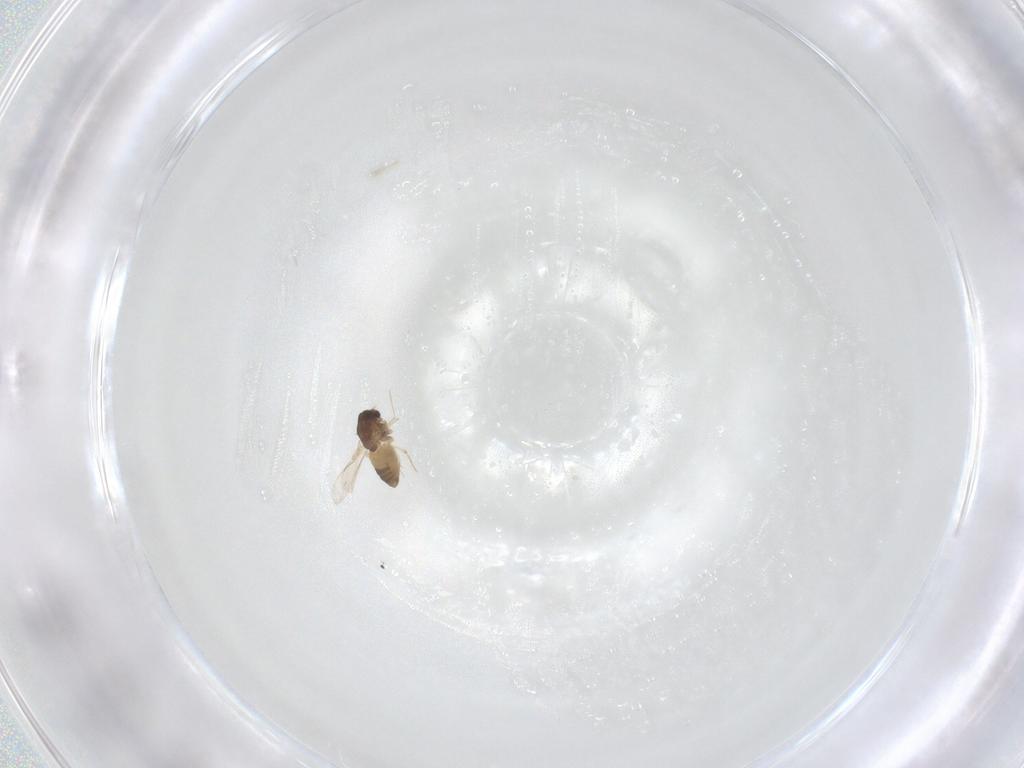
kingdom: Animalia
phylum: Arthropoda
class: Insecta
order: Diptera
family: Chironomidae
